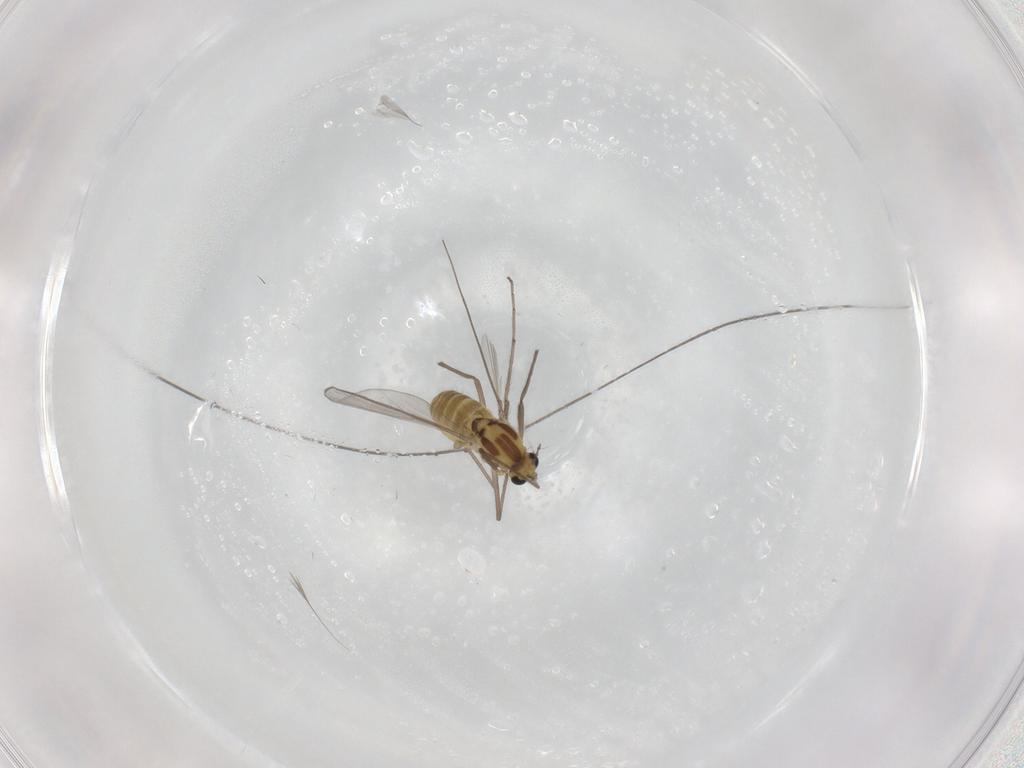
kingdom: Animalia
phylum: Arthropoda
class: Insecta
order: Diptera
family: Chironomidae
